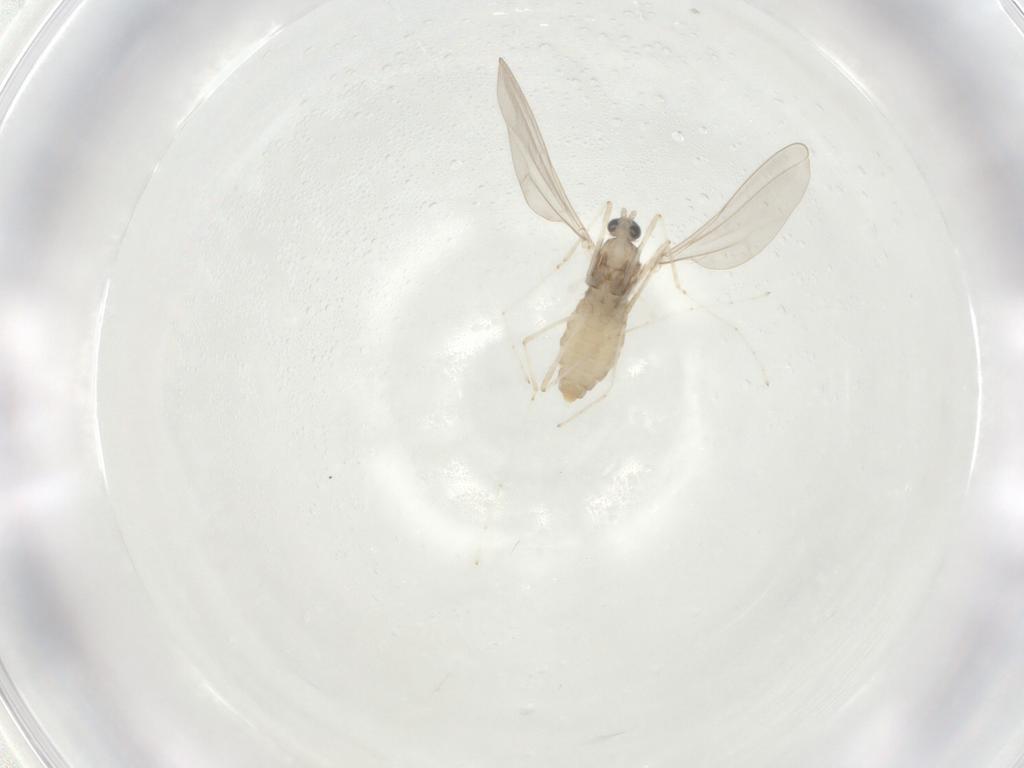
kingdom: Animalia
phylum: Arthropoda
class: Insecta
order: Diptera
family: Cecidomyiidae
